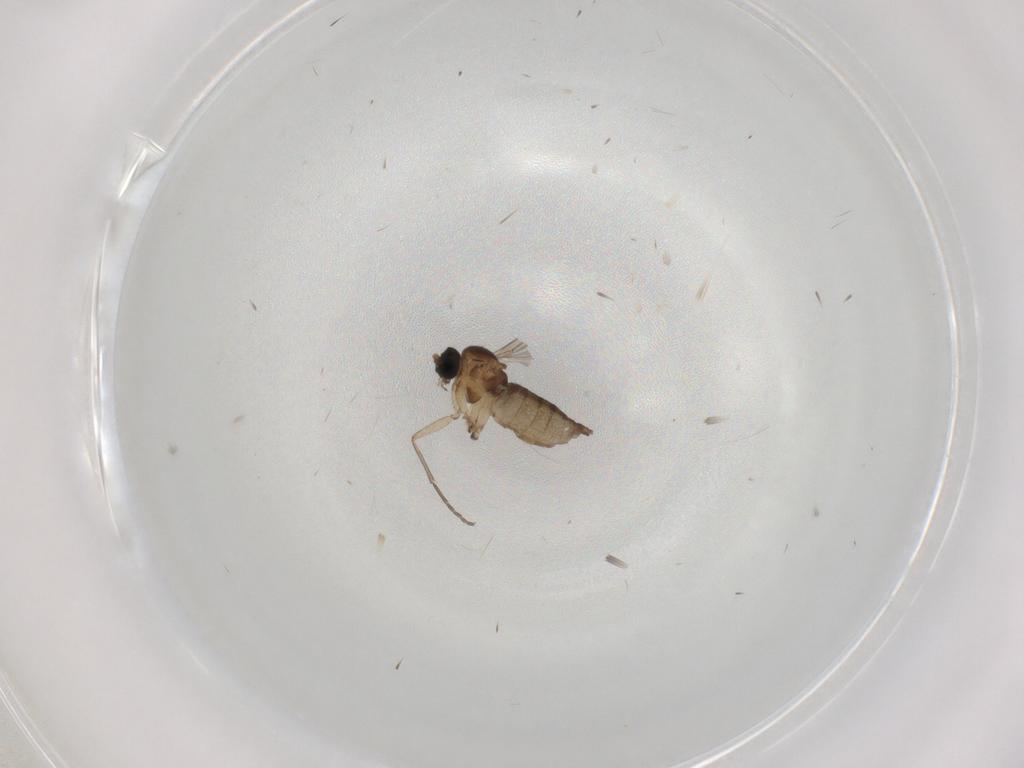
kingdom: Animalia
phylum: Arthropoda
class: Insecta
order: Diptera
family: Sciaridae
